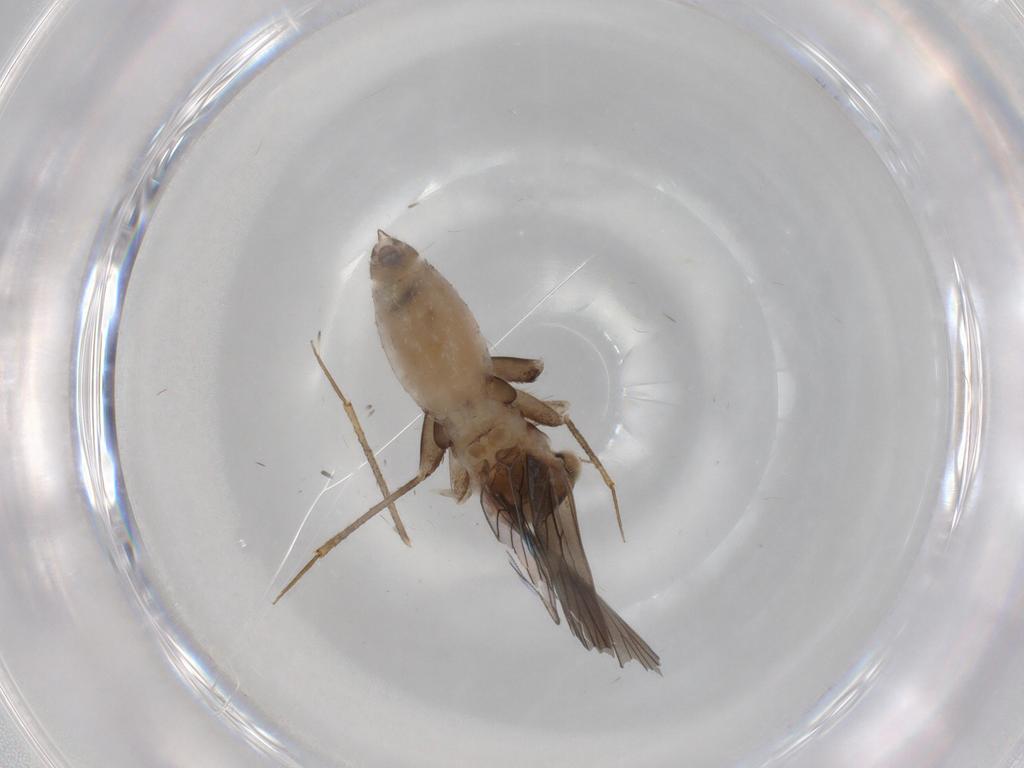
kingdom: Animalia
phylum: Arthropoda
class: Insecta
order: Psocodea
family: Lepidopsocidae
